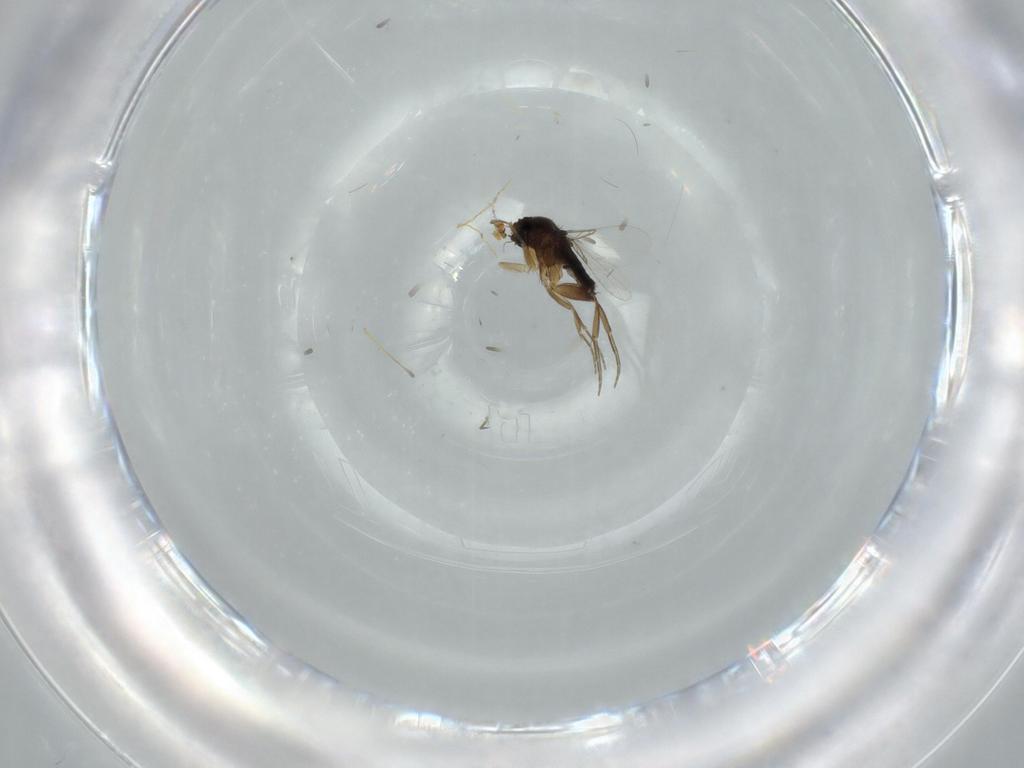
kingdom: Animalia
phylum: Arthropoda
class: Insecta
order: Diptera
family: Phoridae
